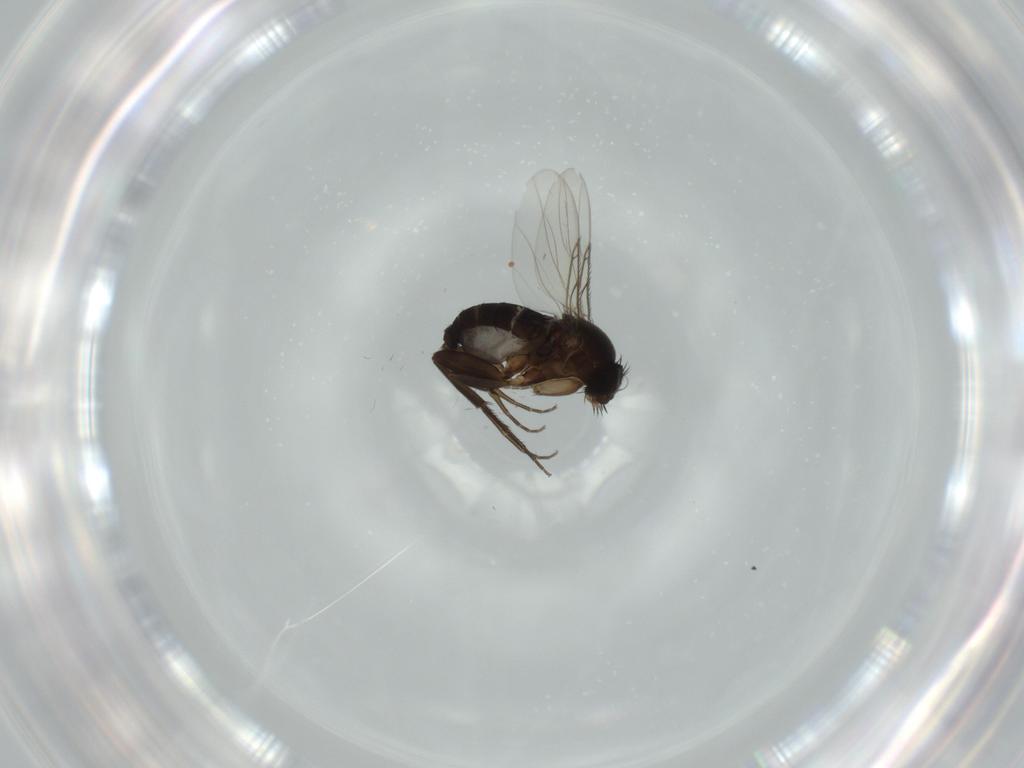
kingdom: Animalia
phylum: Arthropoda
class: Insecta
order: Diptera
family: Phoridae
